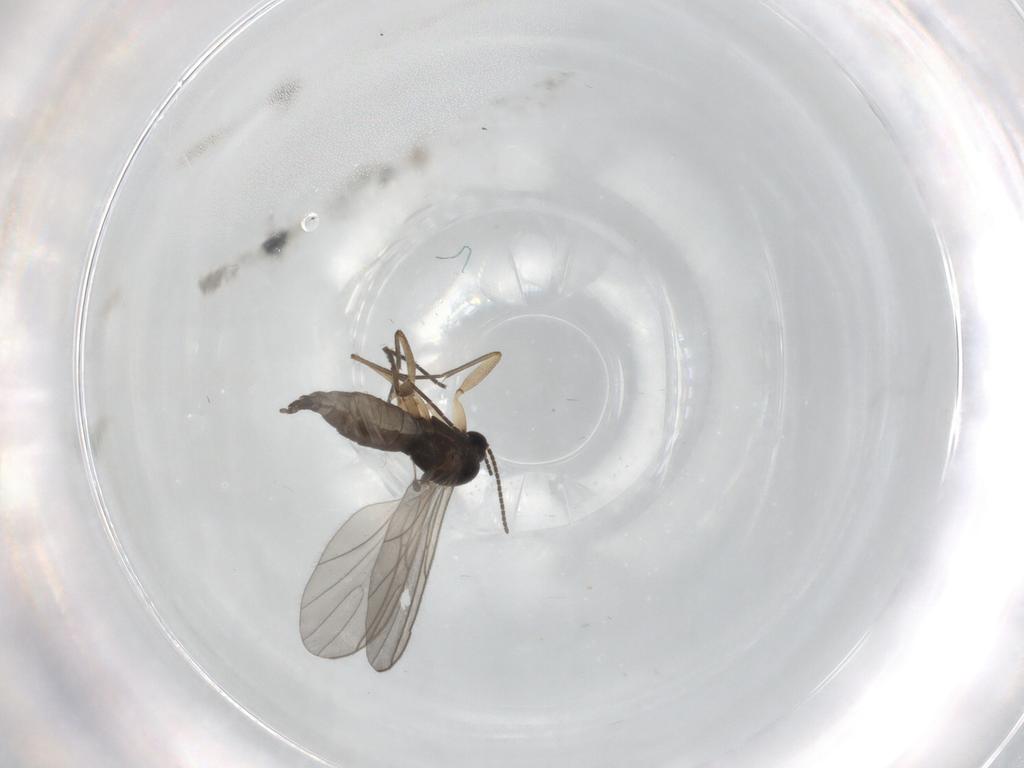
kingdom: Animalia
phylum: Arthropoda
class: Insecta
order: Diptera
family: Sciaridae
